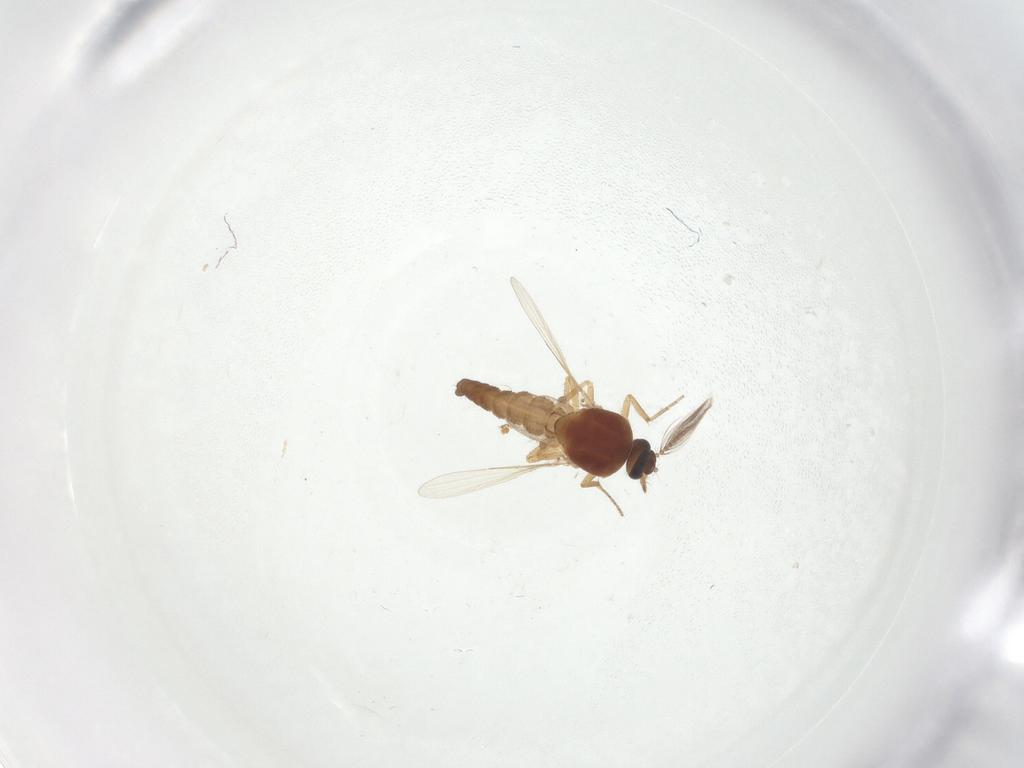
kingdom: Animalia
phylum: Arthropoda
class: Insecta
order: Diptera
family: Ceratopogonidae
